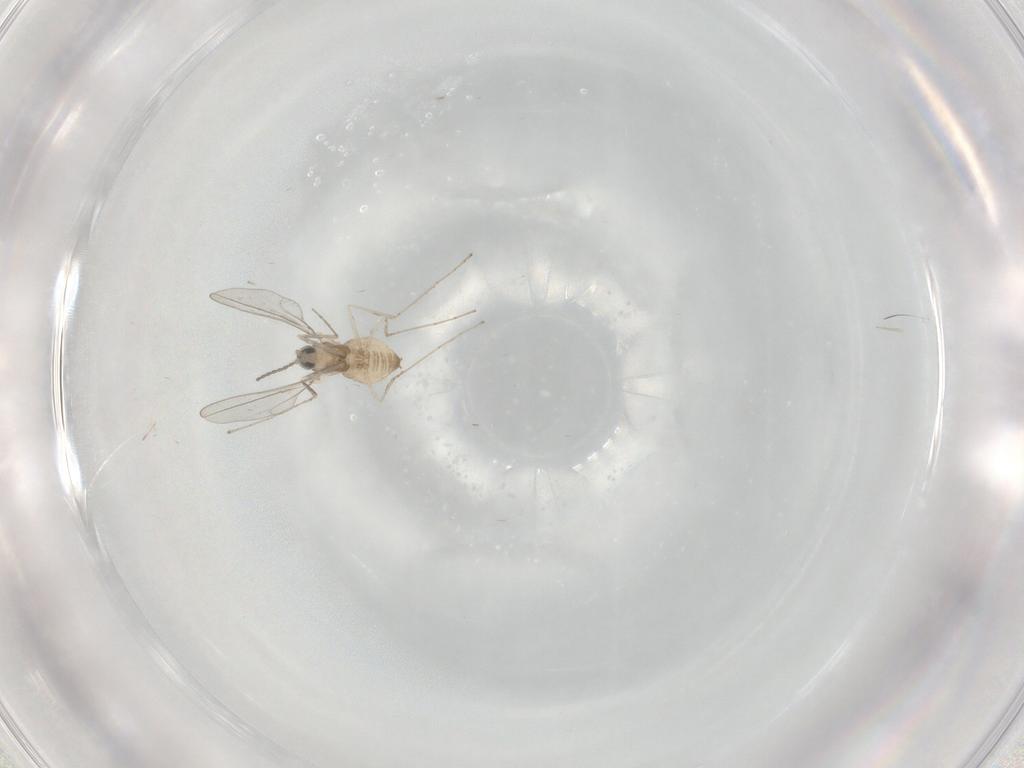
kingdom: Animalia
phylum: Arthropoda
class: Insecta
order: Diptera
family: Cecidomyiidae
